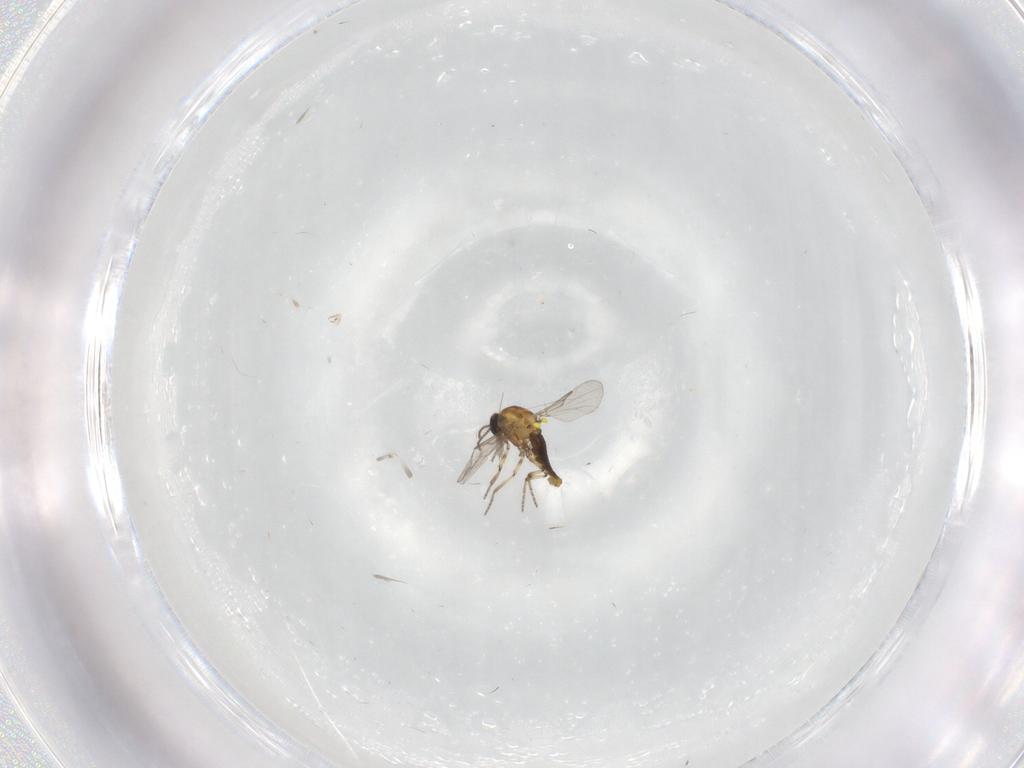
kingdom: Animalia
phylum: Arthropoda
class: Insecta
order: Diptera
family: Ceratopogonidae
